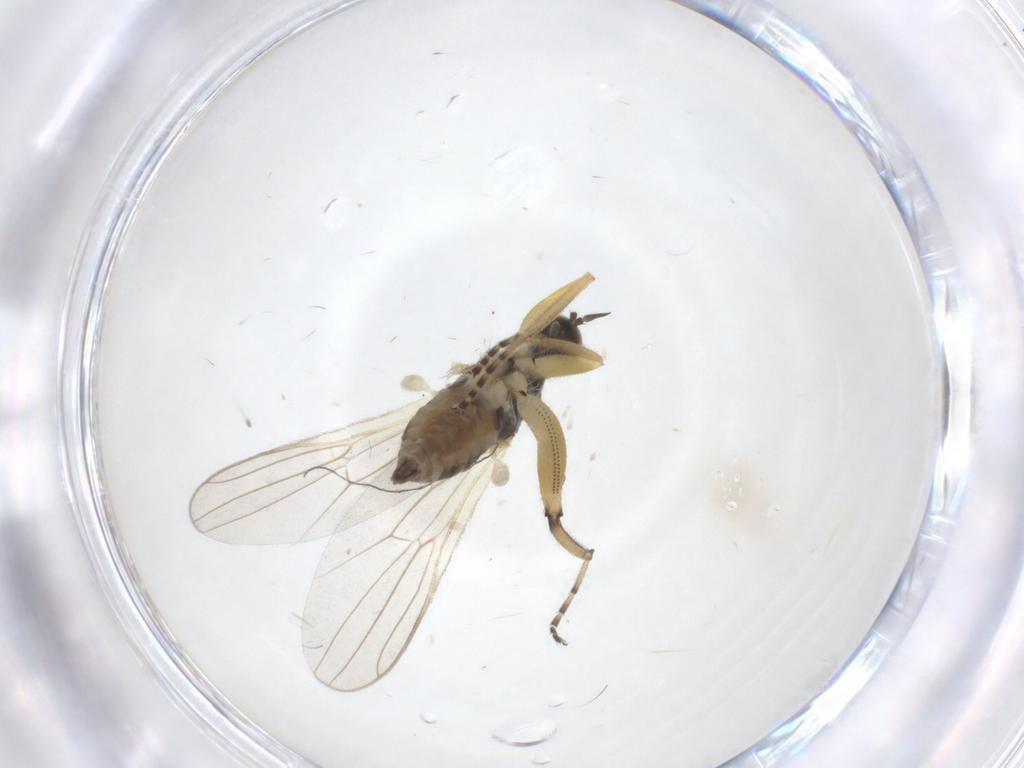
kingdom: Animalia
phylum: Arthropoda
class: Insecta
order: Diptera
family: Hybotidae
